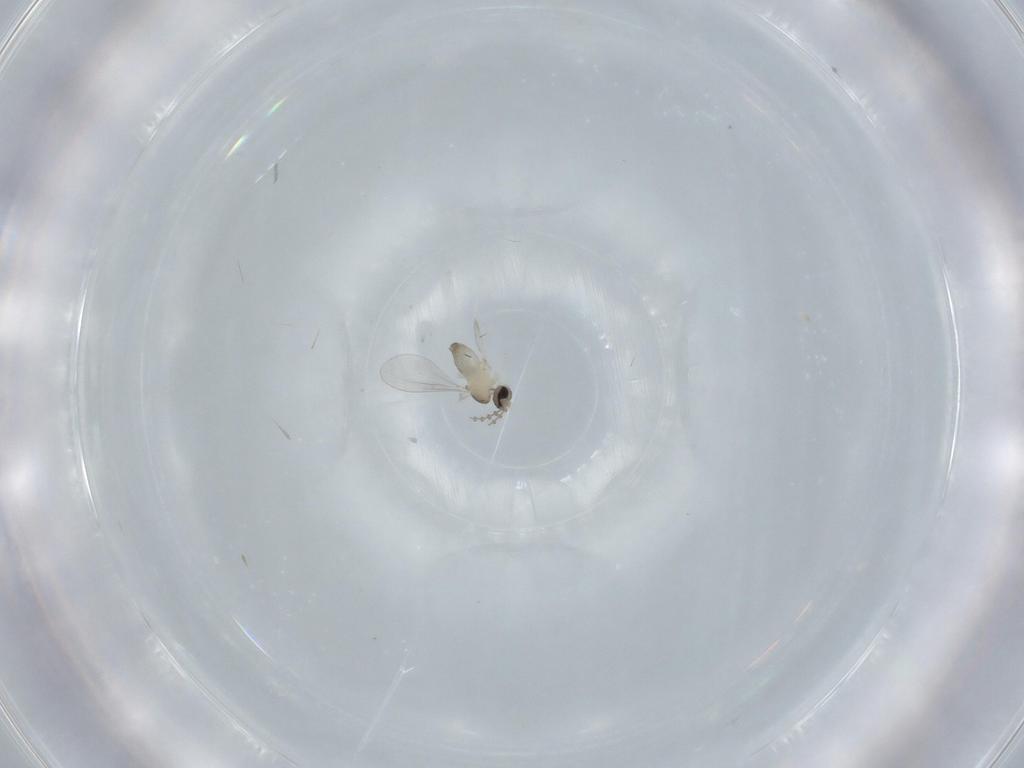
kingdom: Animalia
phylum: Arthropoda
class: Insecta
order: Diptera
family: Cecidomyiidae
